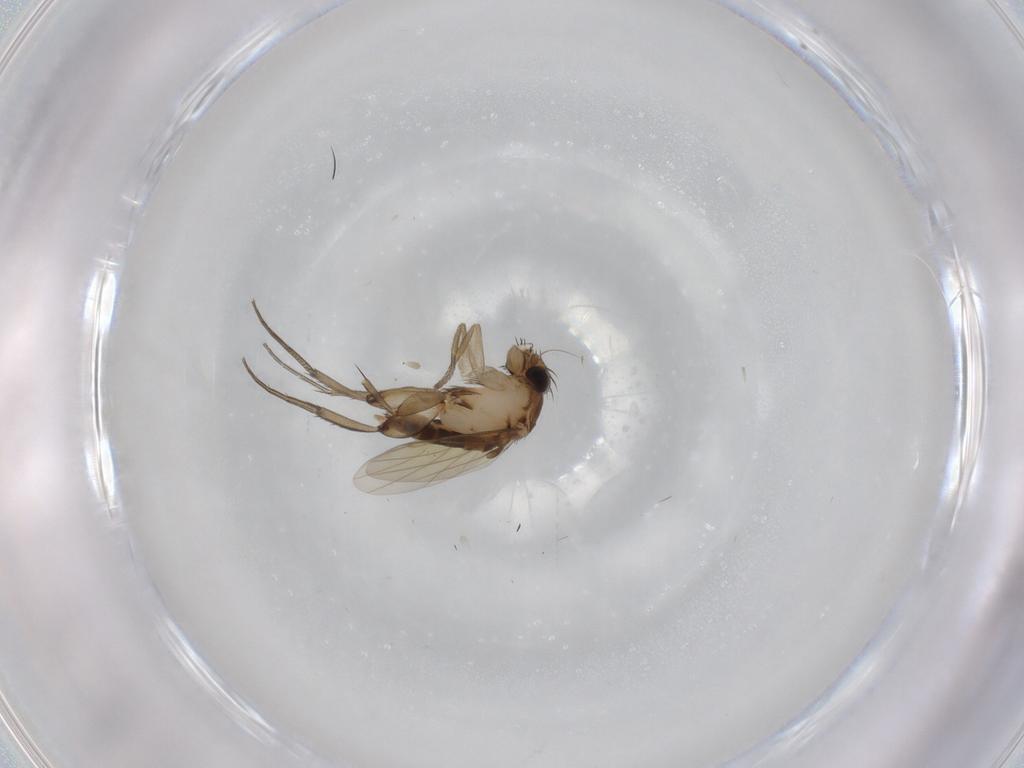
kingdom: Animalia
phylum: Arthropoda
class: Insecta
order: Diptera
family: Phoridae
